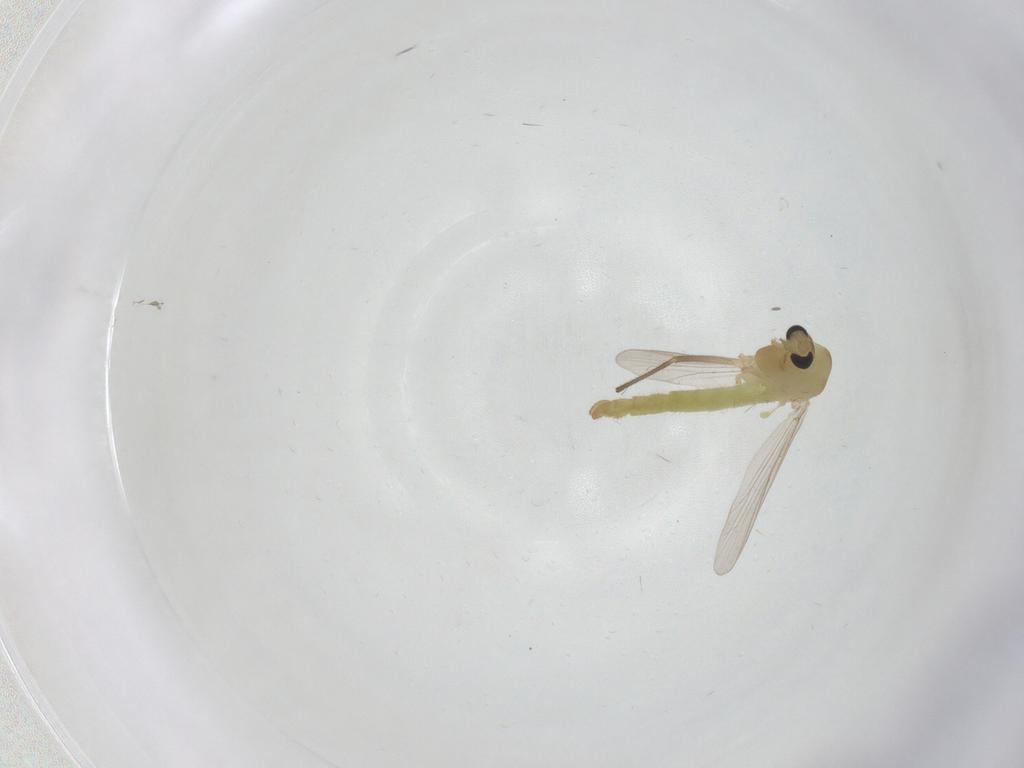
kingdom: Animalia
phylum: Arthropoda
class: Insecta
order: Diptera
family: Chironomidae
